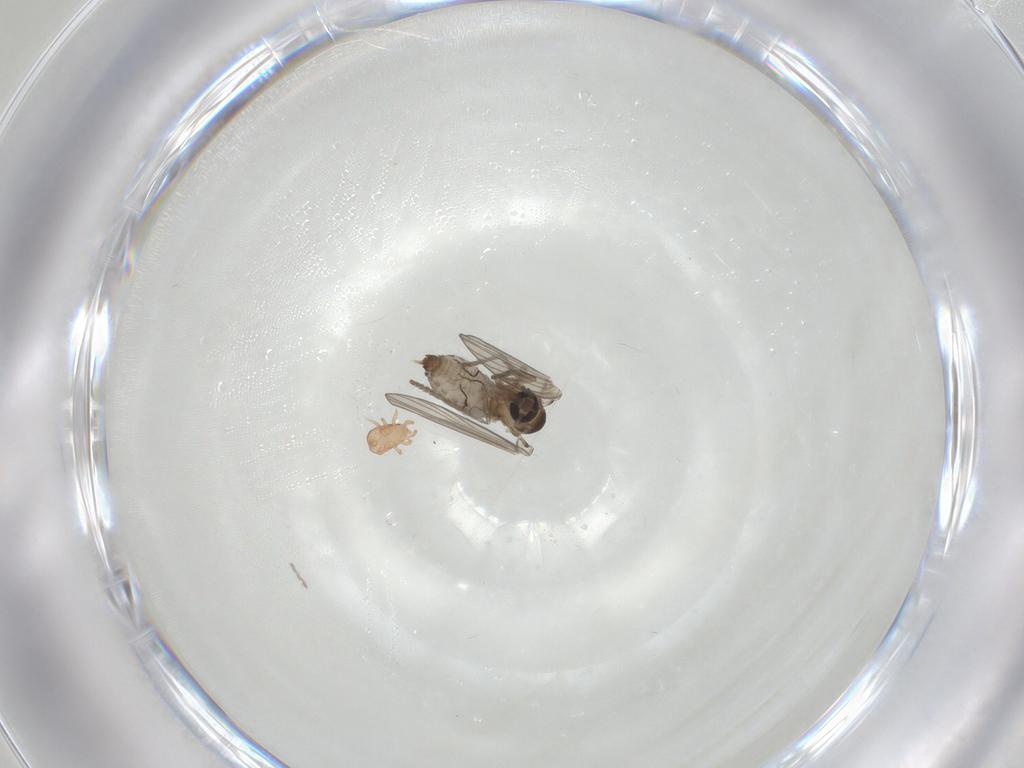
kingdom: Animalia
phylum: Arthropoda
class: Insecta
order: Diptera
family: Psychodidae
